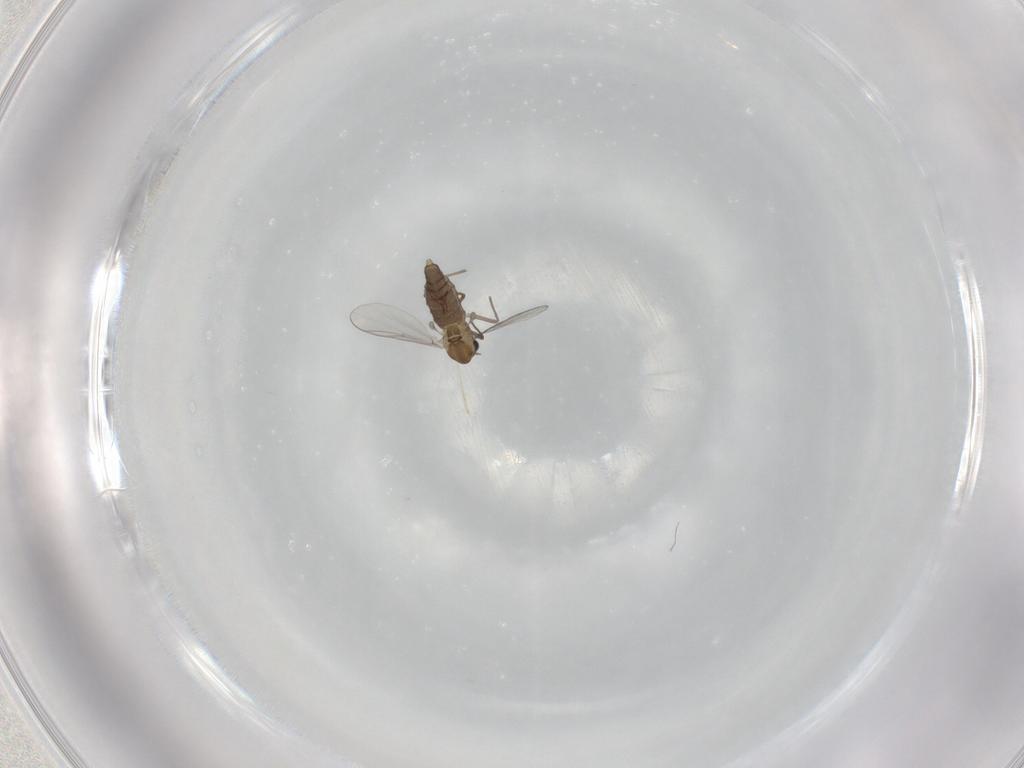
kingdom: Animalia
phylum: Arthropoda
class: Insecta
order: Diptera
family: Chironomidae
